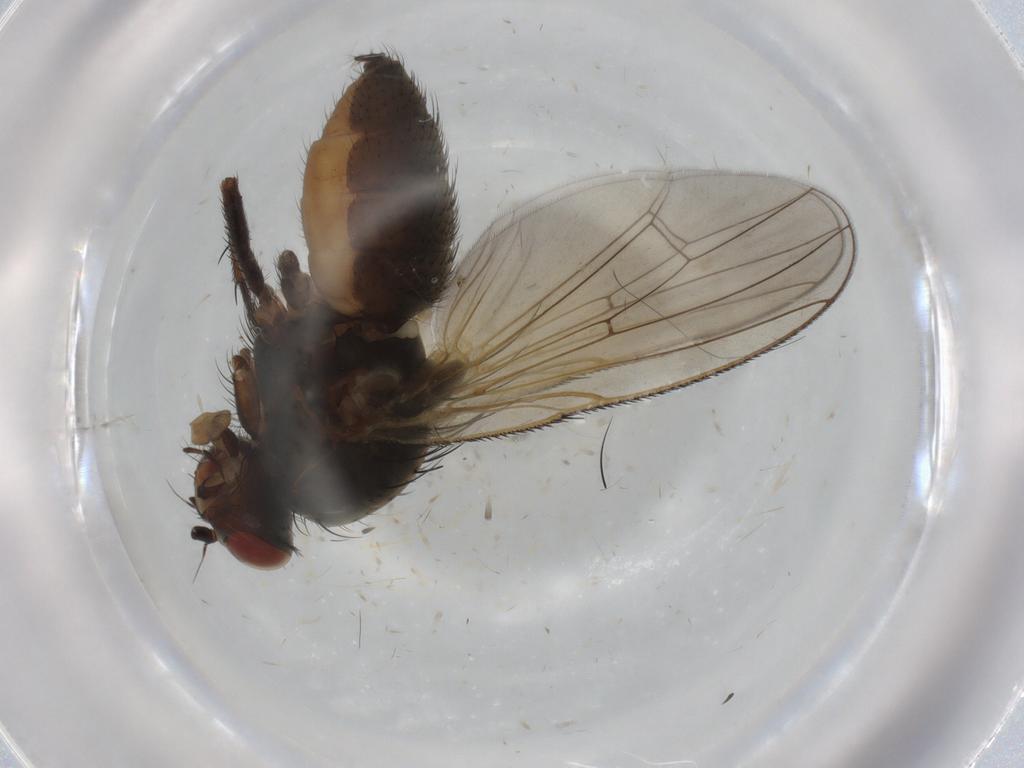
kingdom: Animalia
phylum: Arthropoda
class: Insecta
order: Diptera
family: Anthomyiidae
